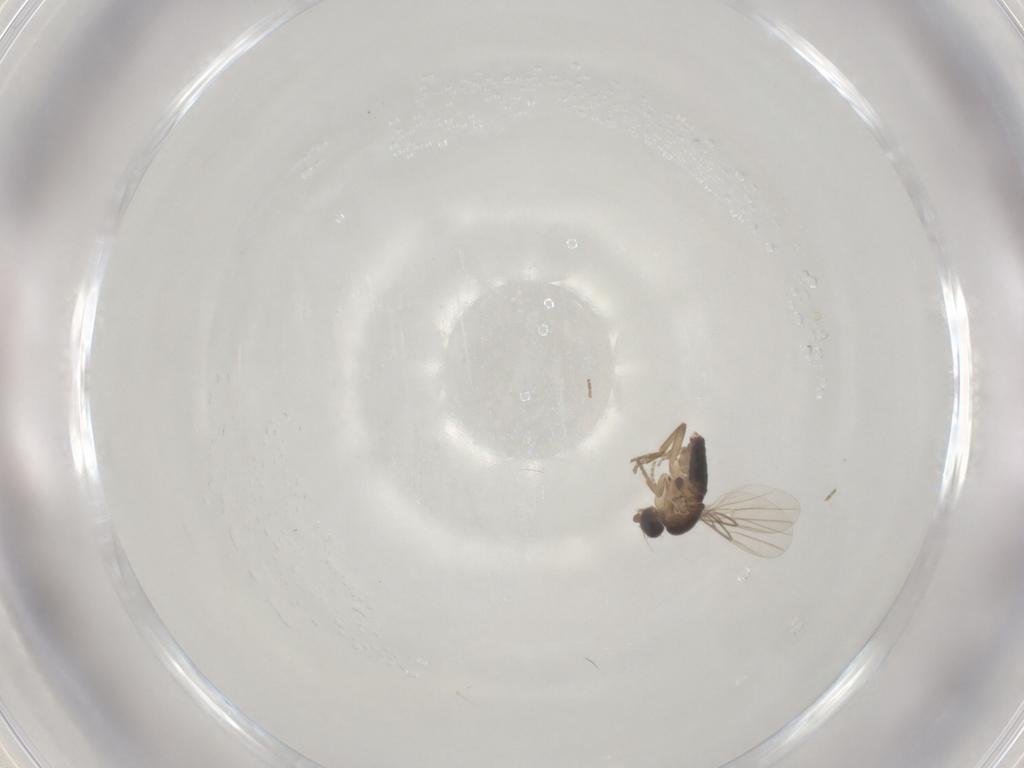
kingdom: Animalia
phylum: Arthropoda
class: Insecta
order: Diptera
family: Phoridae
